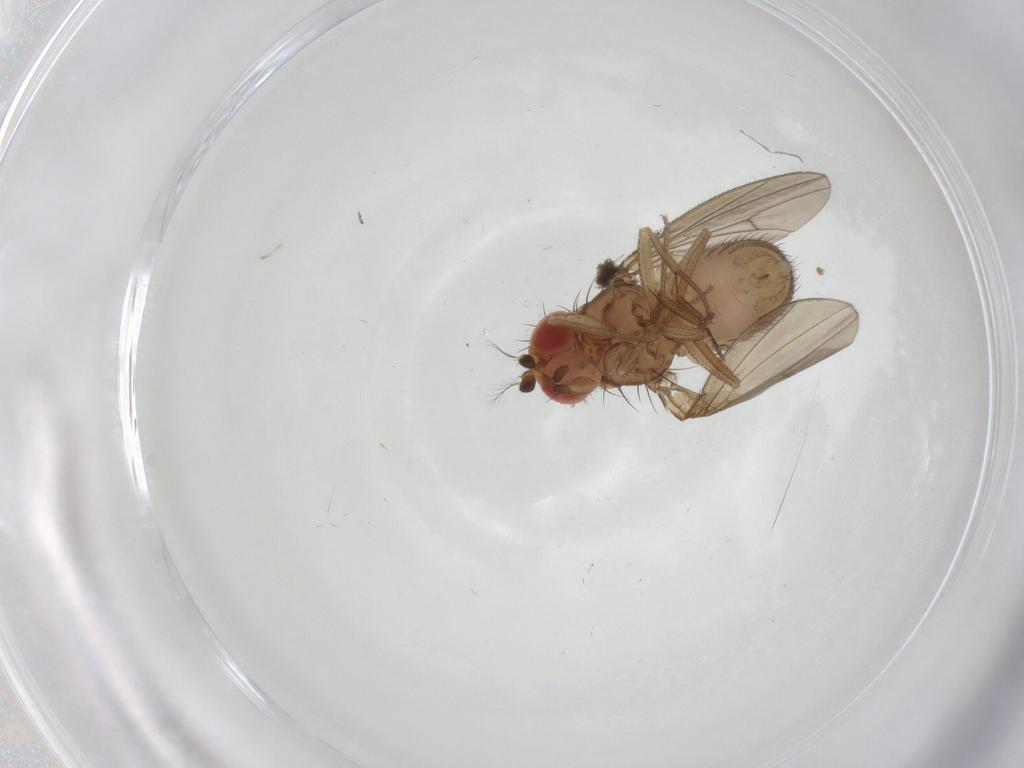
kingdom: Animalia
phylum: Arthropoda
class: Insecta
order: Diptera
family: Drosophilidae
